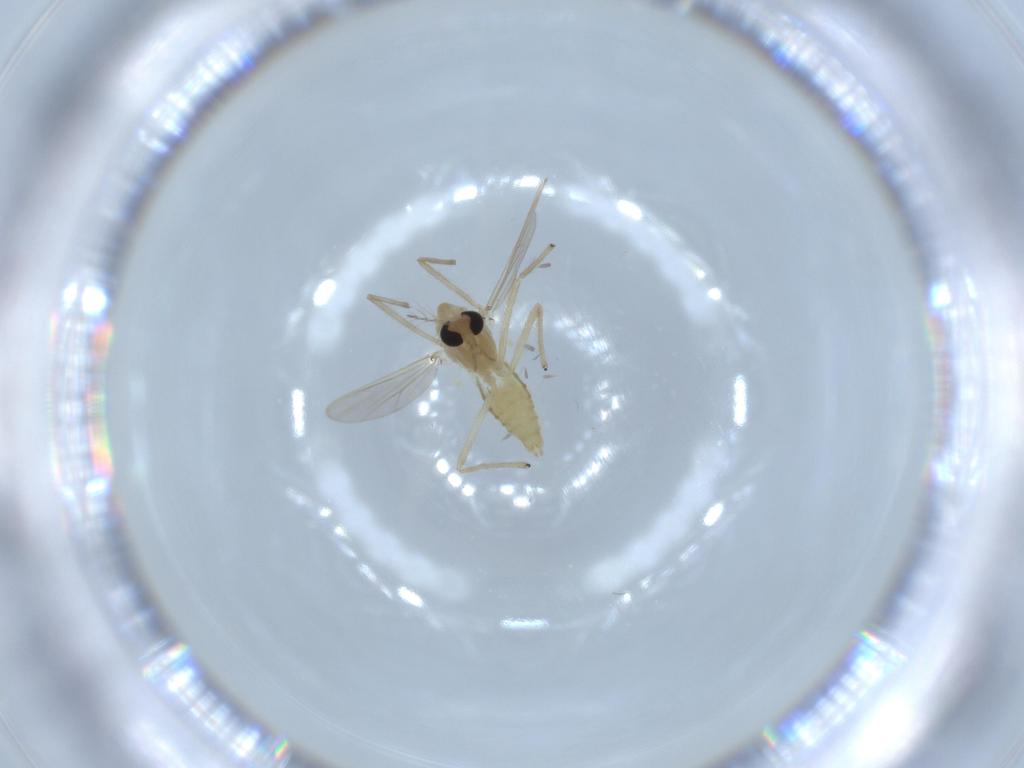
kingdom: Animalia
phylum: Arthropoda
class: Insecta
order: Diptera
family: Chironomidae
